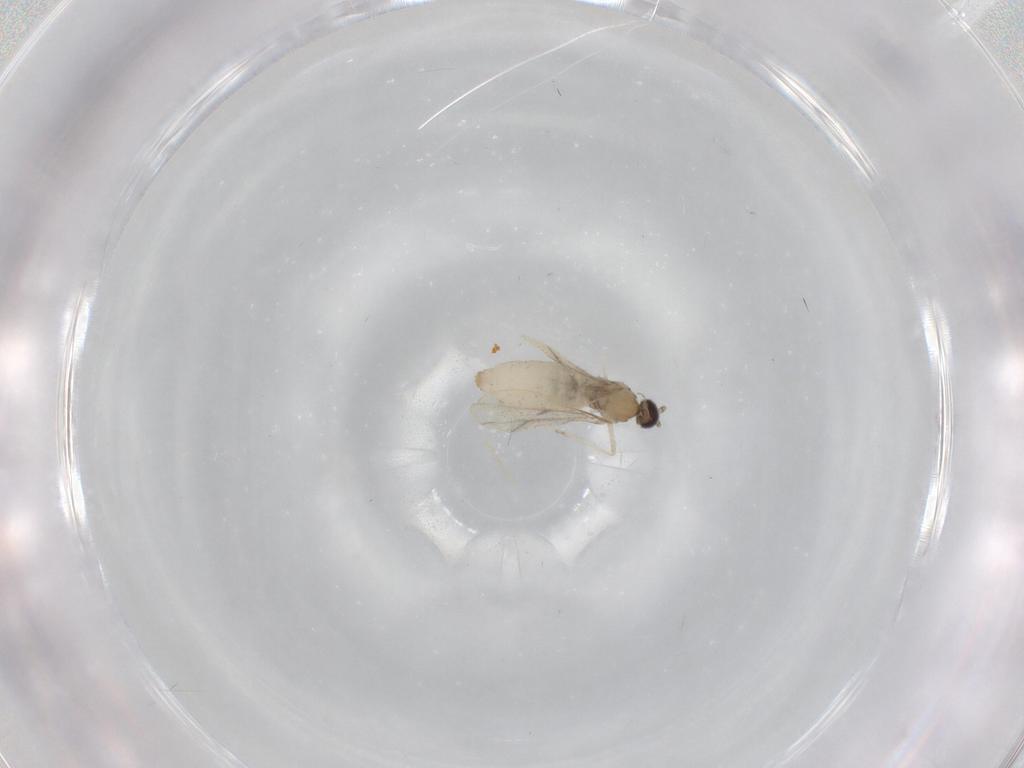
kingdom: Animalia
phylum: Arthropoda
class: Insecta
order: Diptera
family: Cecidomyiidae
